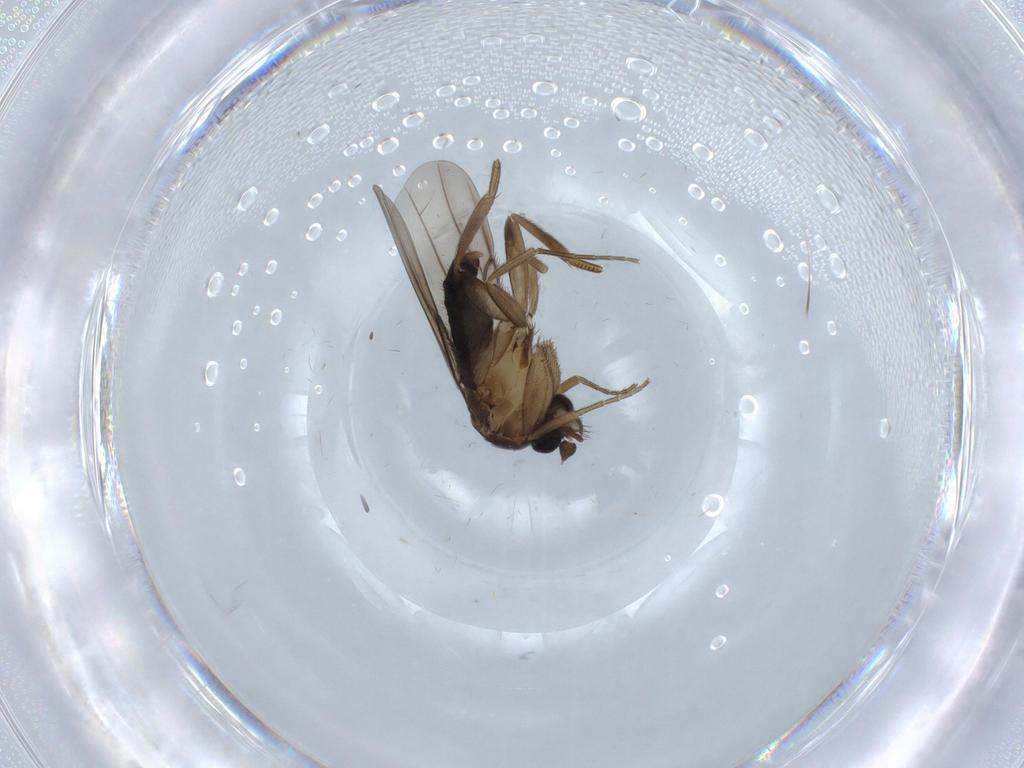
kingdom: Animalia
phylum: Arthropoda
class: Insecta
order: Diptera
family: Phoridae
